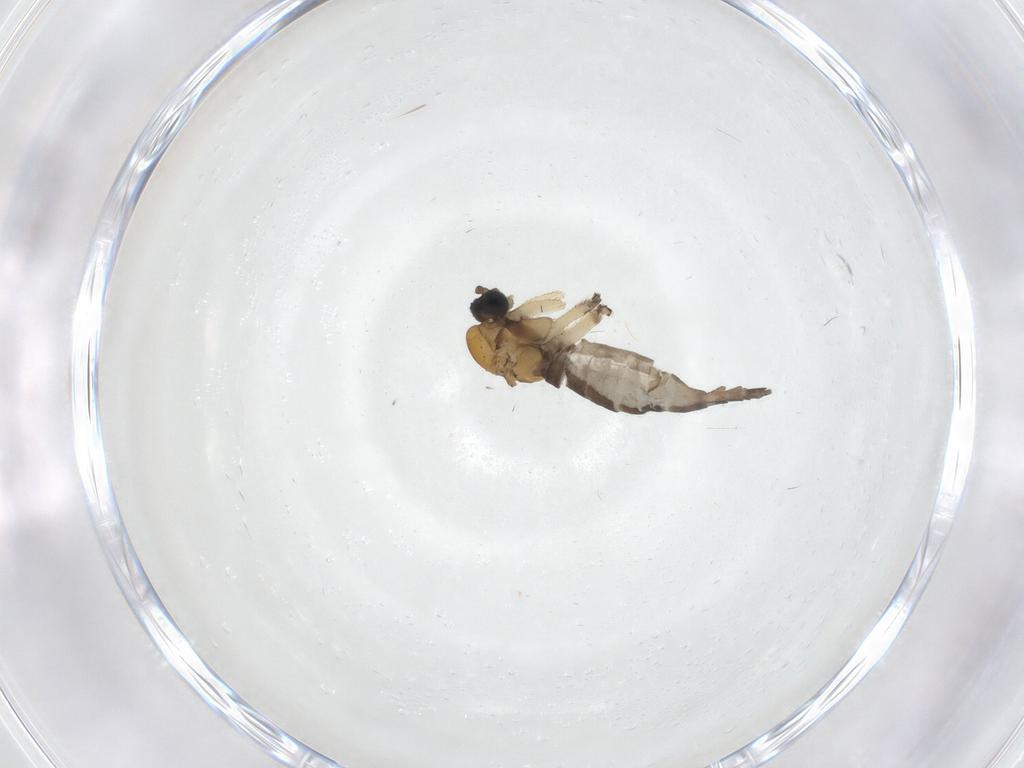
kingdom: Animalia
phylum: Arthropoda
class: Insecta
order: Diptera
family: Sciaridae
